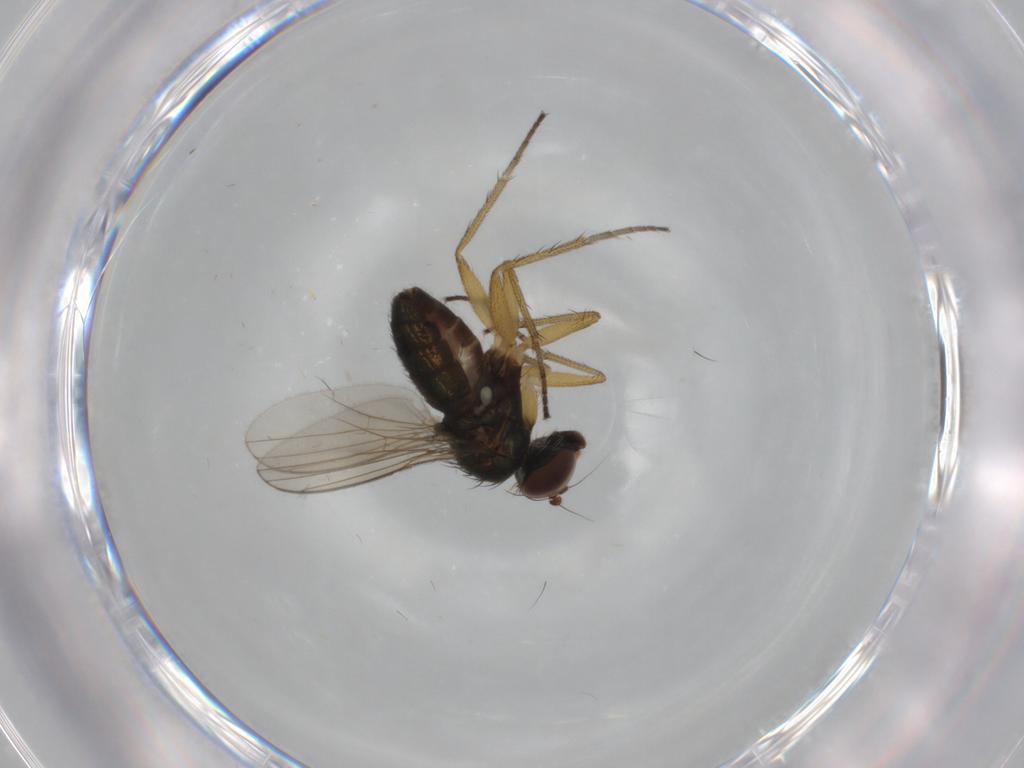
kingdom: Animalia
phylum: Arthropoda
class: Insecta
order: Diptera
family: Dolichopodidae
